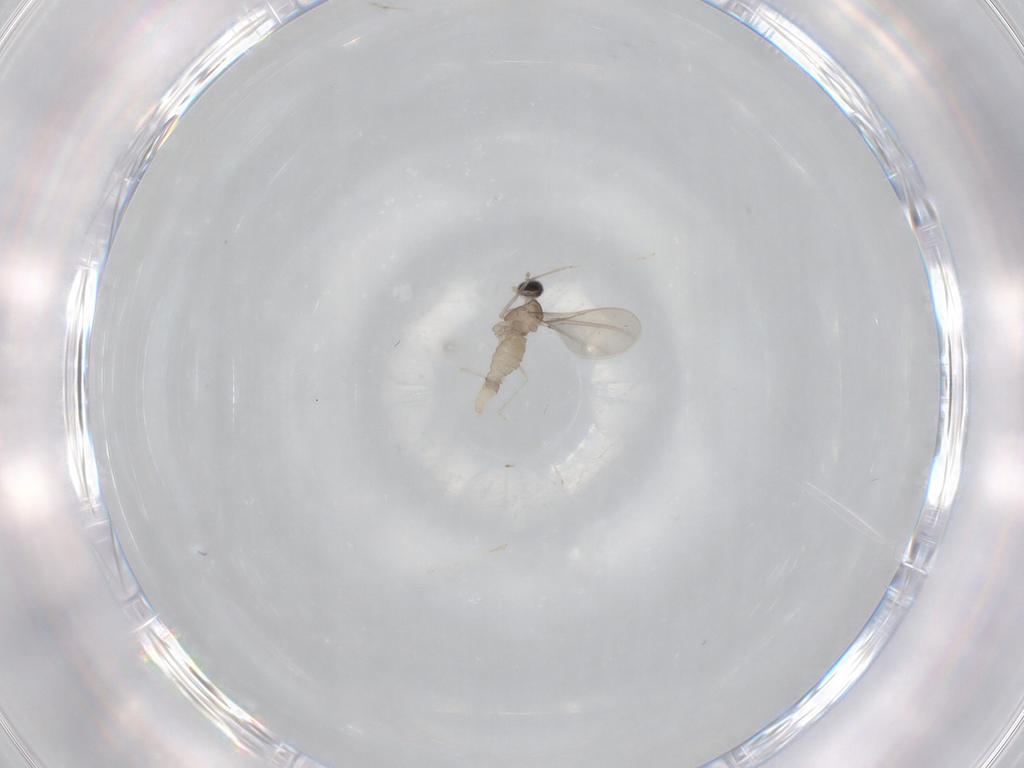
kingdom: Animalia
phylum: Arthropoda
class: Insecta
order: Diptera
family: Cecidomyiidae
